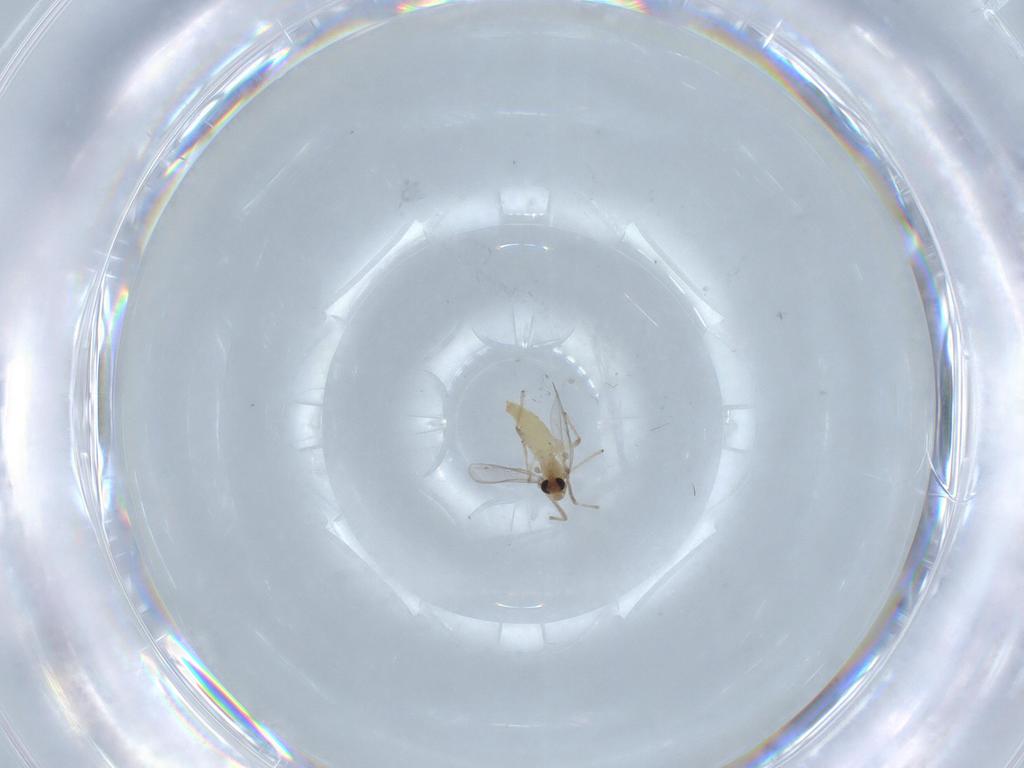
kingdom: Animalia
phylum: Arthropoda
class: Insecta
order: Diptera
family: Chironomidae
